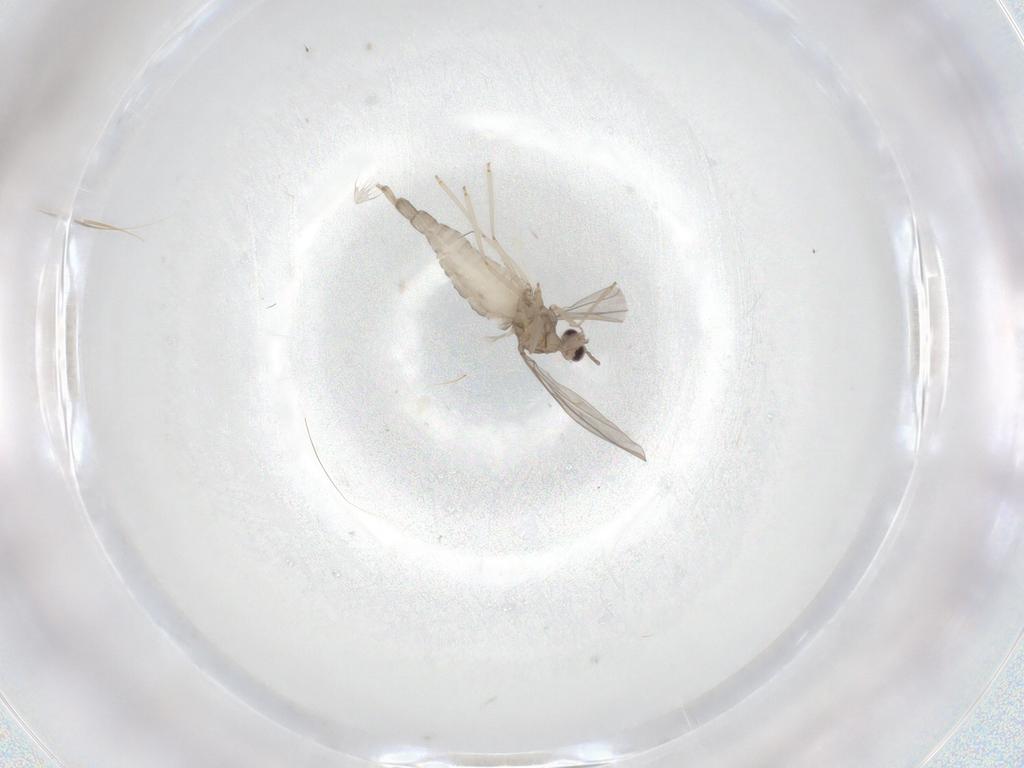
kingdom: Animalia
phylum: Arthropoda
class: Insecta
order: Diptera
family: Cecidomyiidae
